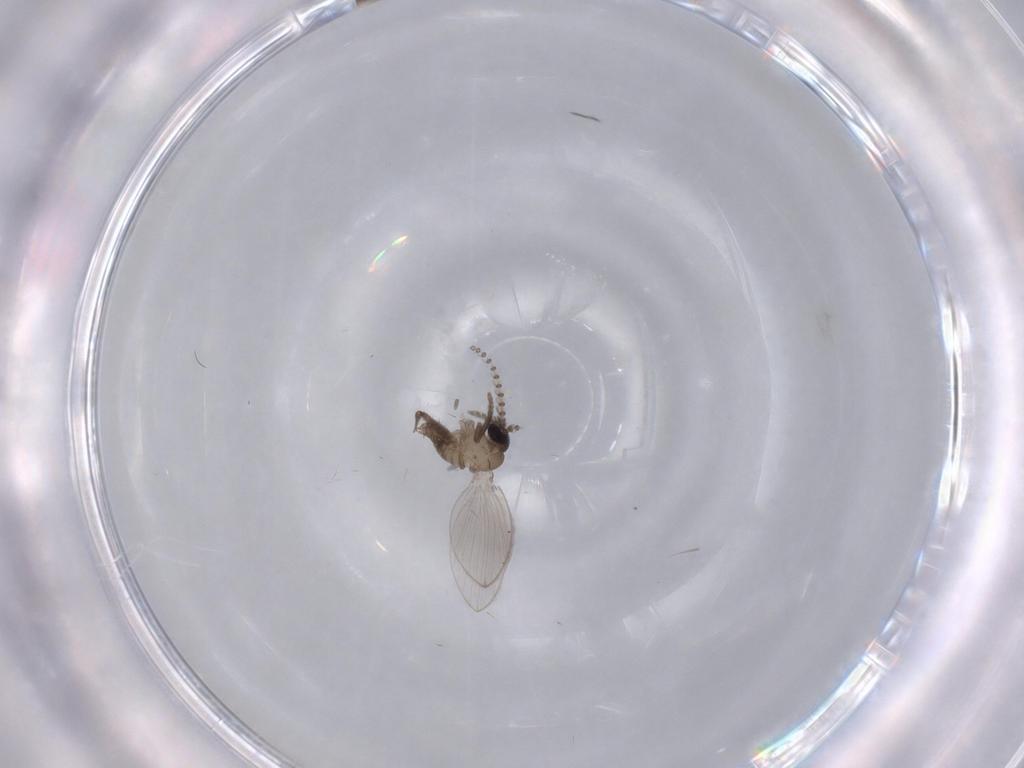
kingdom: Animalia
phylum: Arthropoda
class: Insecta
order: Diptera
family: Psychodidae
